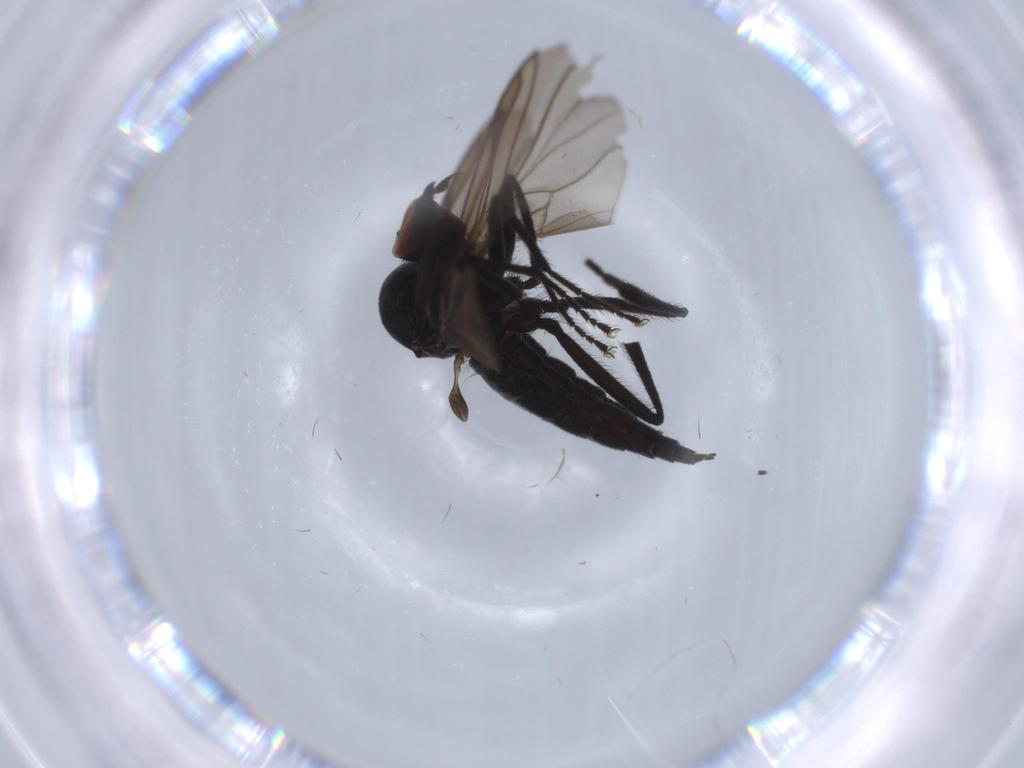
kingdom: Animalia
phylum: Arthropoda
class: Insecta
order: Diptera
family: Hybotidae
